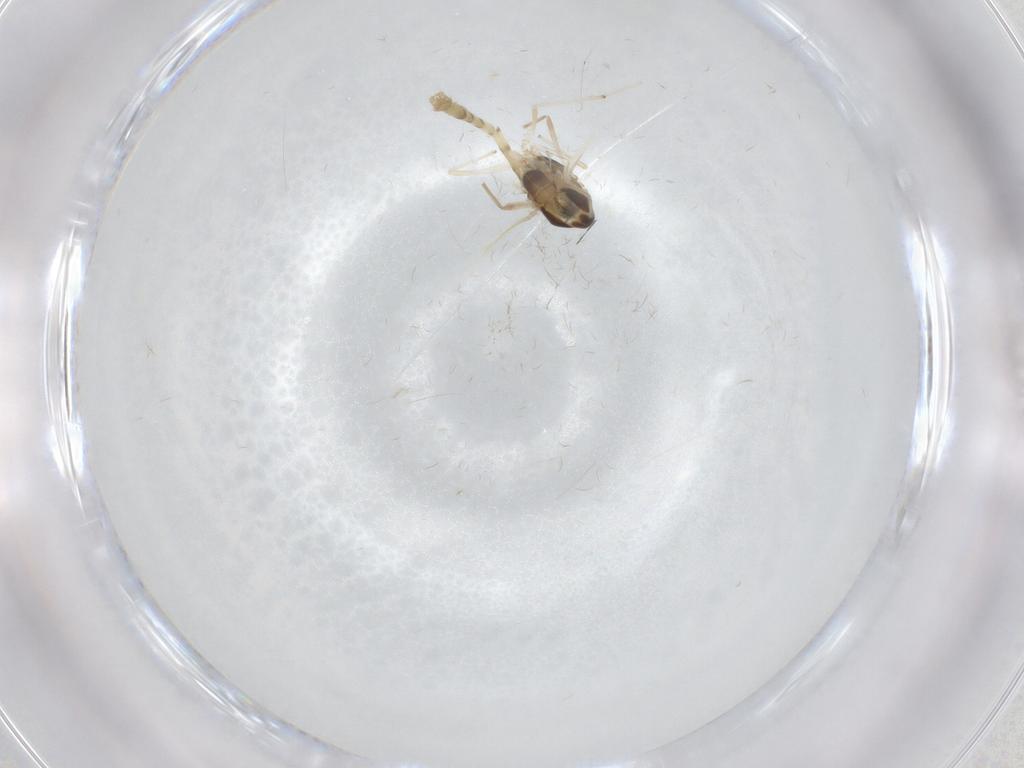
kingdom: Animalia
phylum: Arthropoda
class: Insecta
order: Diptera
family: Chironomidae
